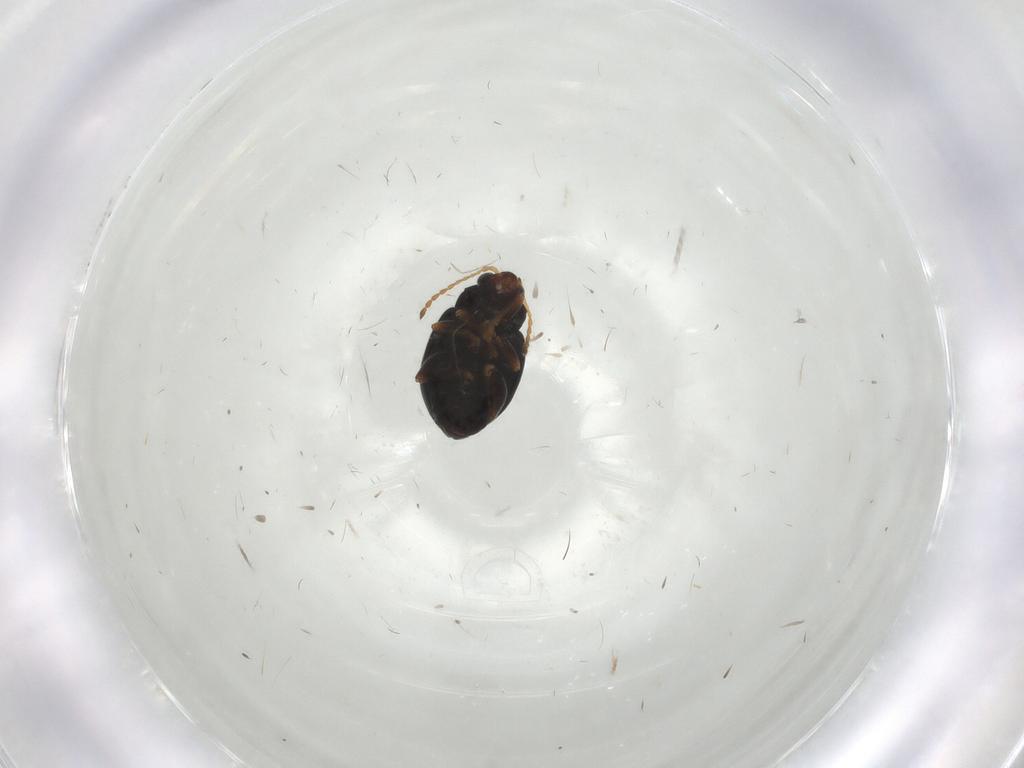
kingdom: Animalia
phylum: Arthropoda
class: Insecta
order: Coleoptera
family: Chrysomelidae
